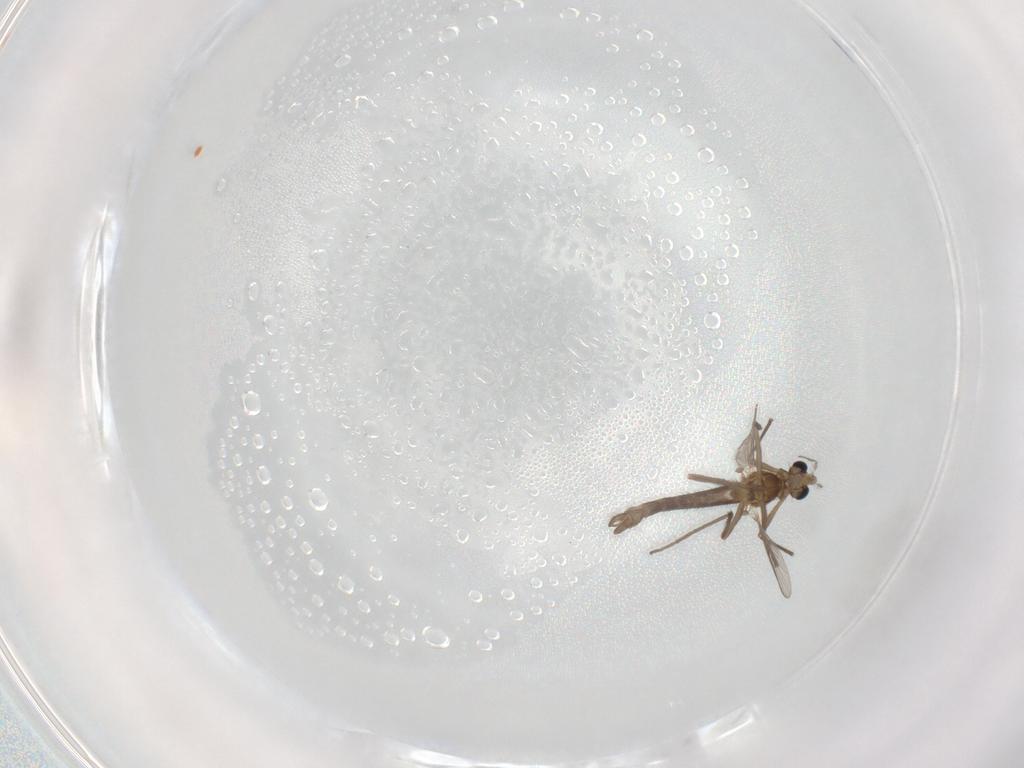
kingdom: Animalia
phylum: Arthropoda
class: Insecta
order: Diptera
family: Chironomidae
